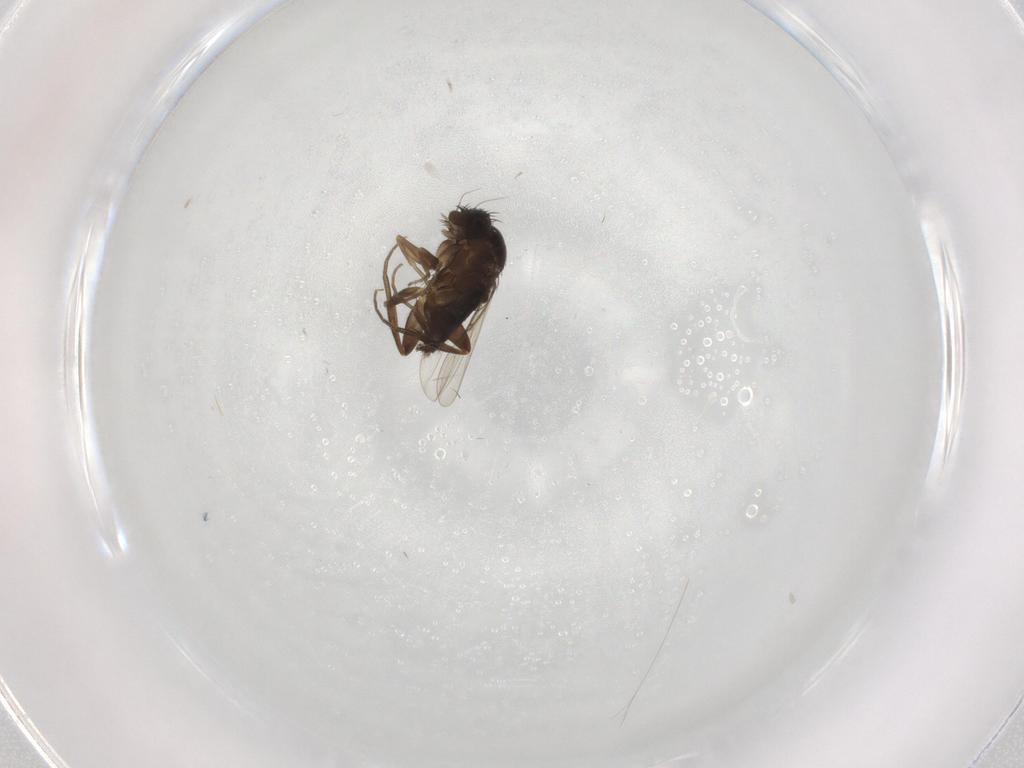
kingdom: Animalia
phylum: Arthropoda
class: Insecta
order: Diptera
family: Phoridae
